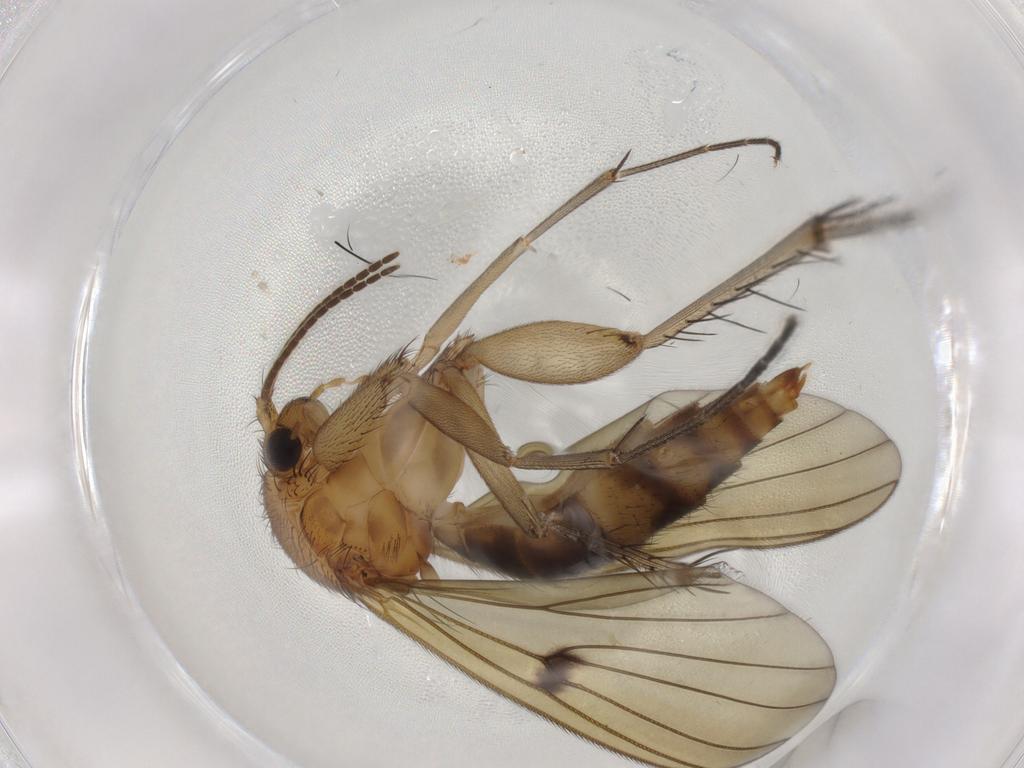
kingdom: Animalia
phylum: Arthropoda
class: Insecta
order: Diptera
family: Phoridae
